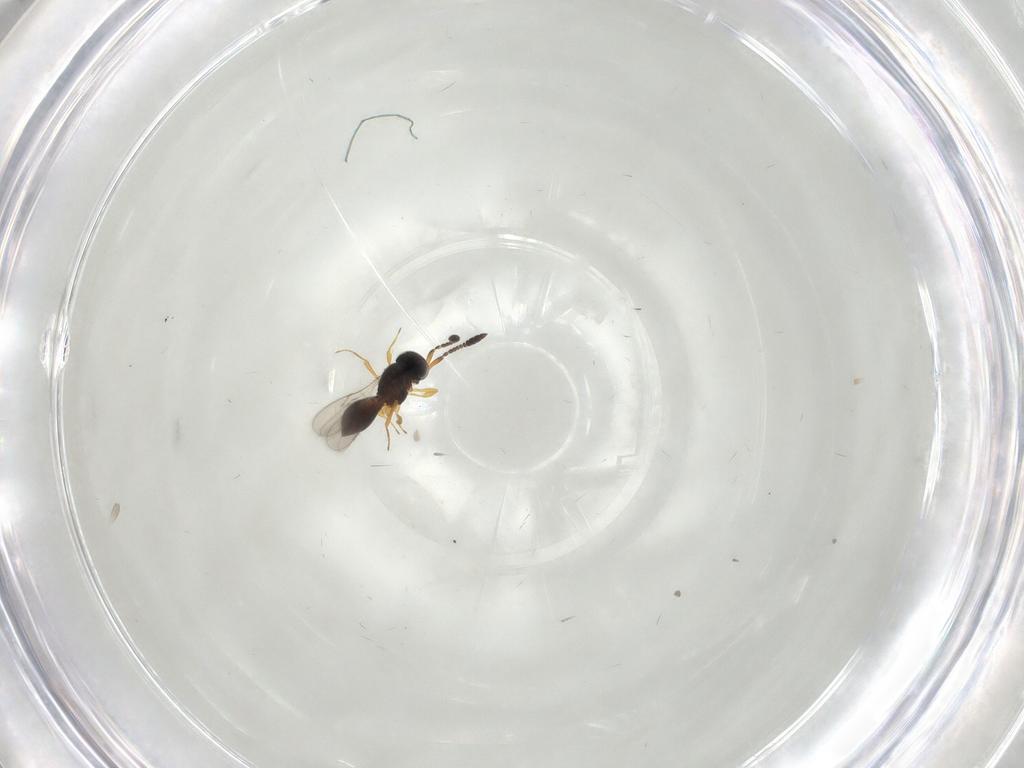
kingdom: Animalia
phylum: Arthropoda
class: Insecta
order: Hymenoptera
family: Scelionidae
